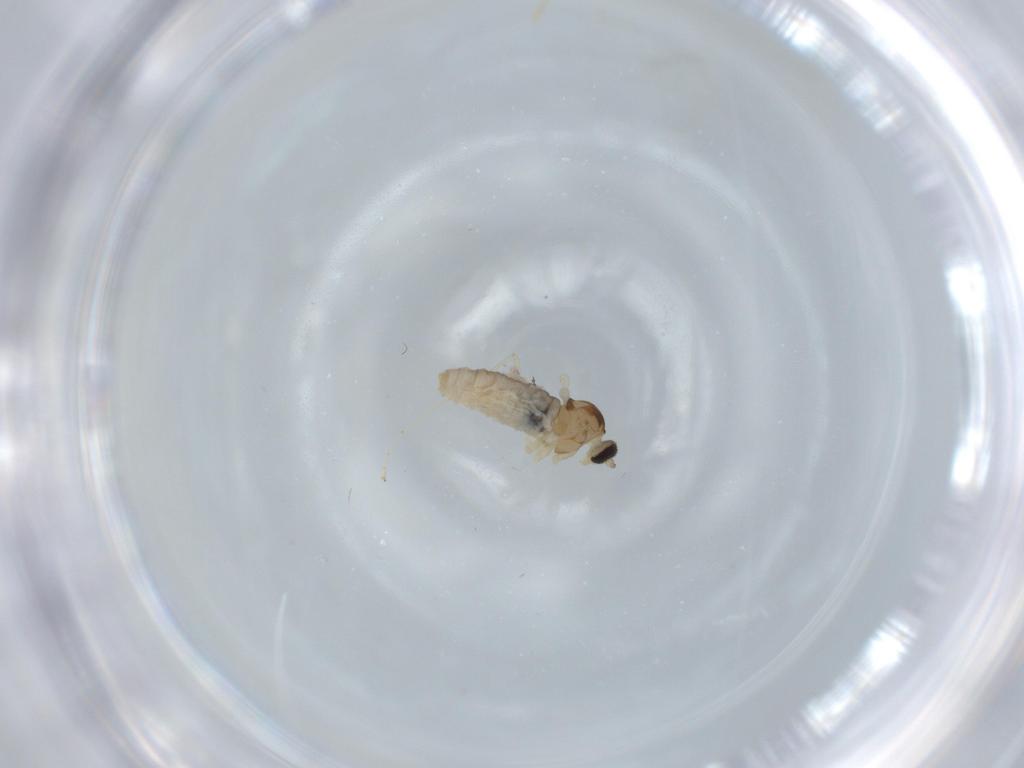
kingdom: Animalia
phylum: Arthropoda
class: Insecta
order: Diptera
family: Cecidomyiidae
